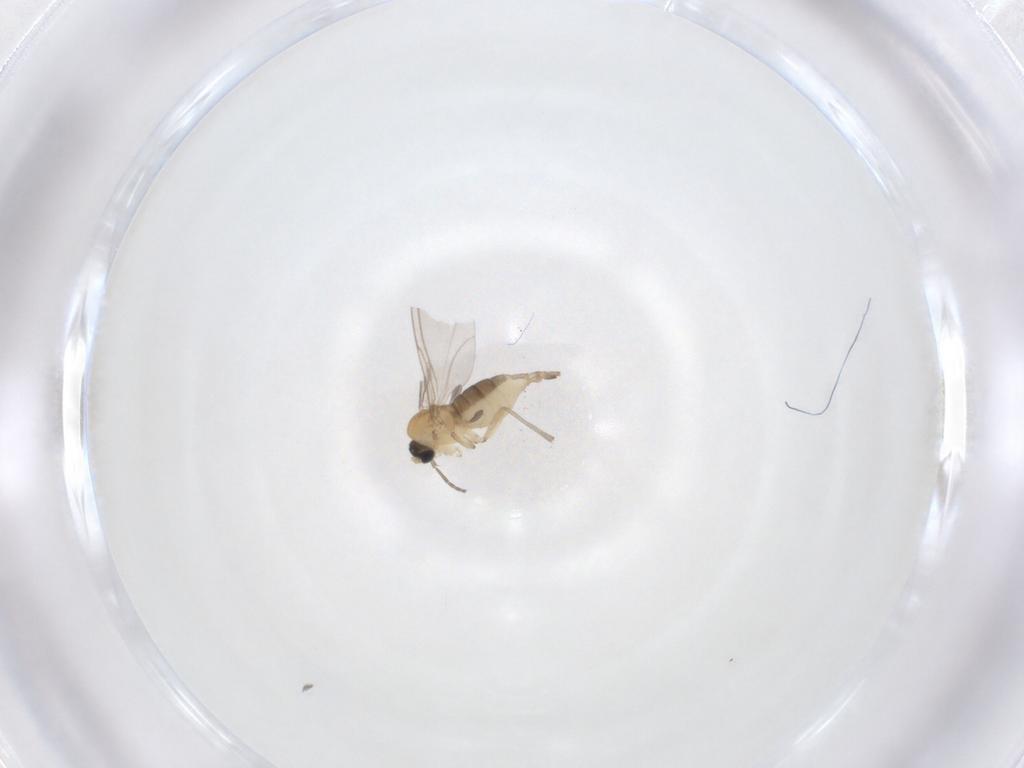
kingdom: Animalia
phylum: Arthropoda
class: Insecta
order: Diptera
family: Sciaridae
